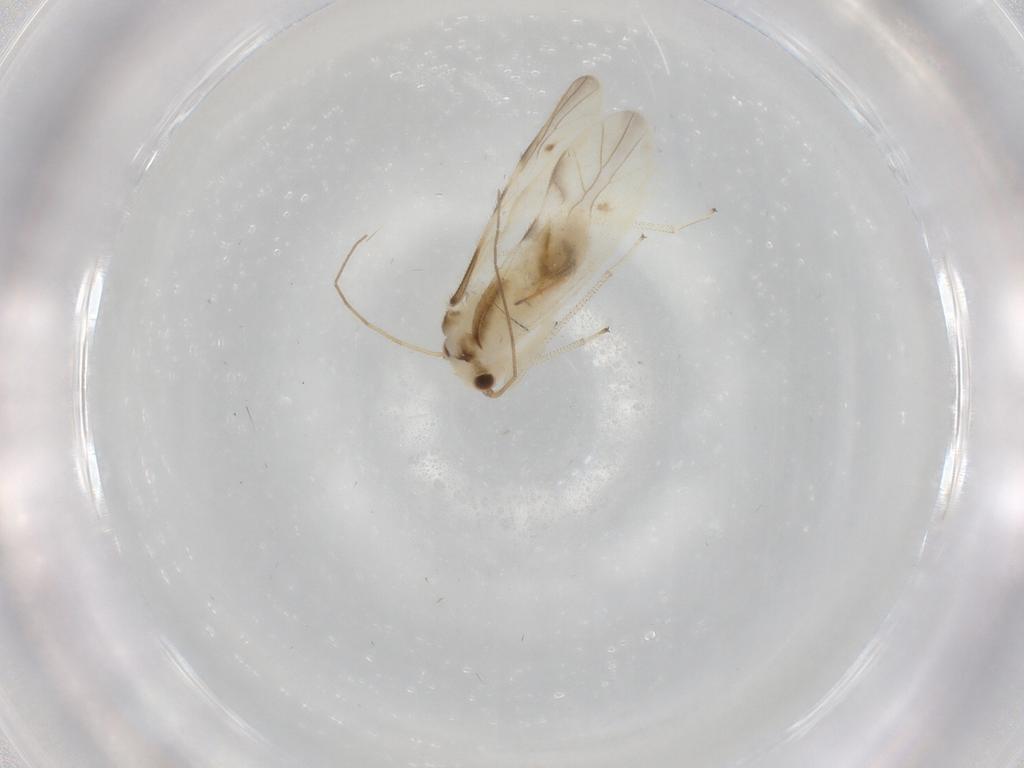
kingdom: Animalia
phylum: Arthropoda
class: Insecta
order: Psocodea
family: Caeciliusidae
